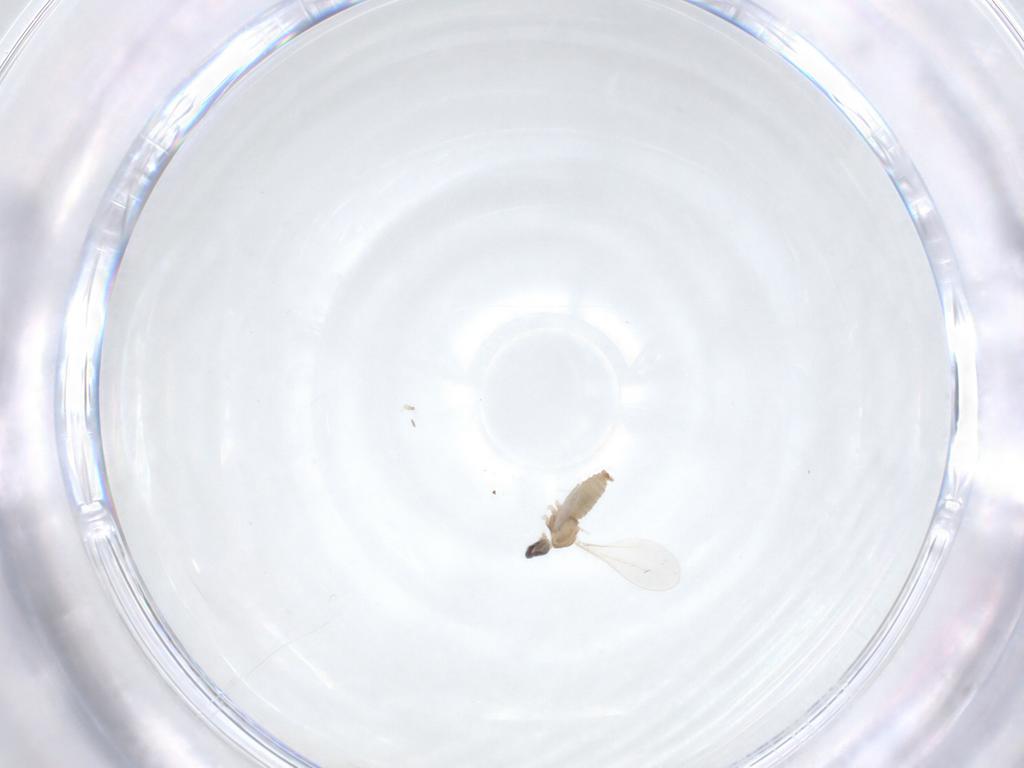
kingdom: Animalia
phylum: Arthropoda
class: Insecta
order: Diptera
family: Cecidomyiidae
